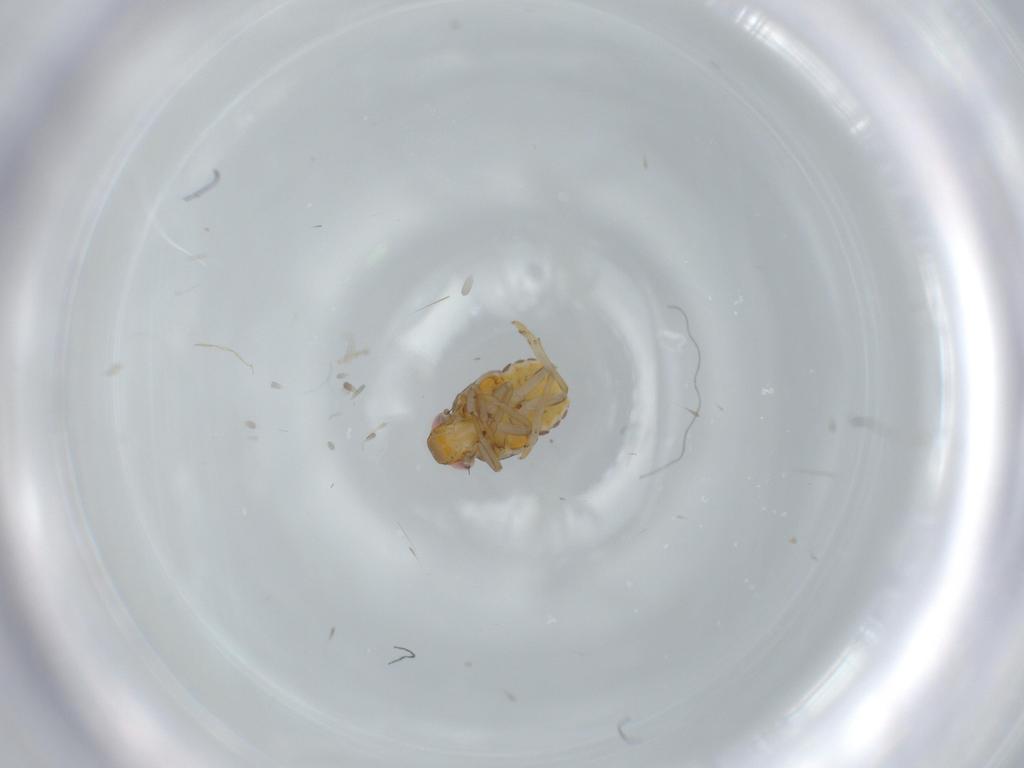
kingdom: Animalia
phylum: Arthropoda
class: Insecta
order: Hemiptera
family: Issidae
